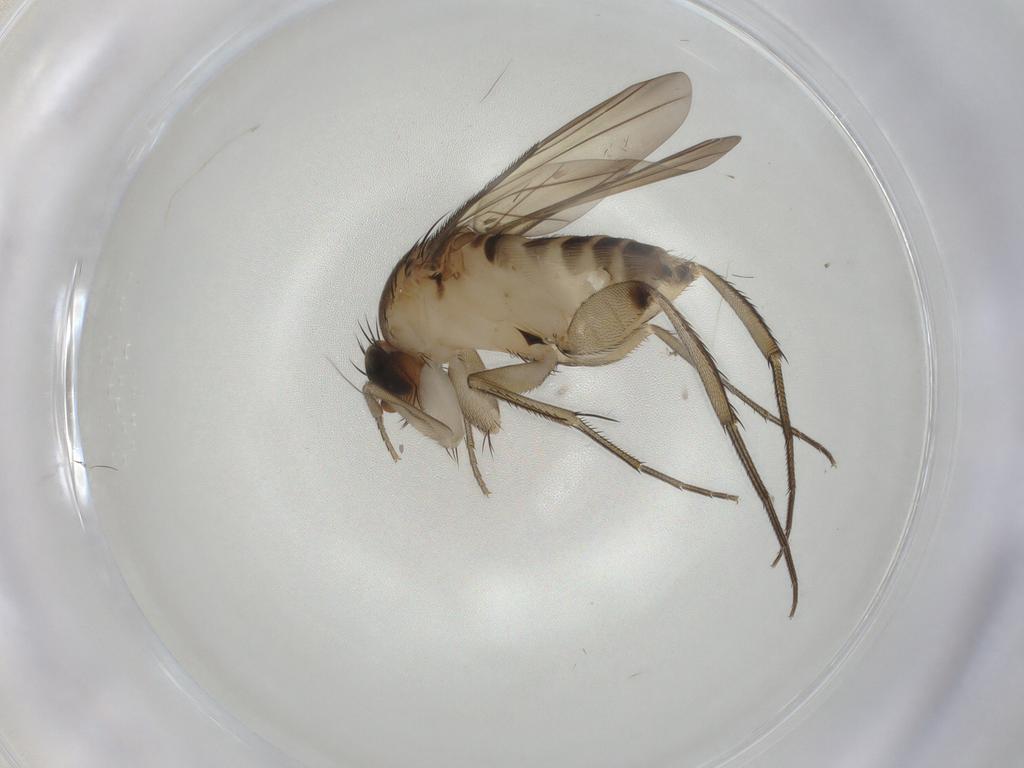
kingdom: Animalia
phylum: Arthropoda
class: Insecta
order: Diptera
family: Phoridae
